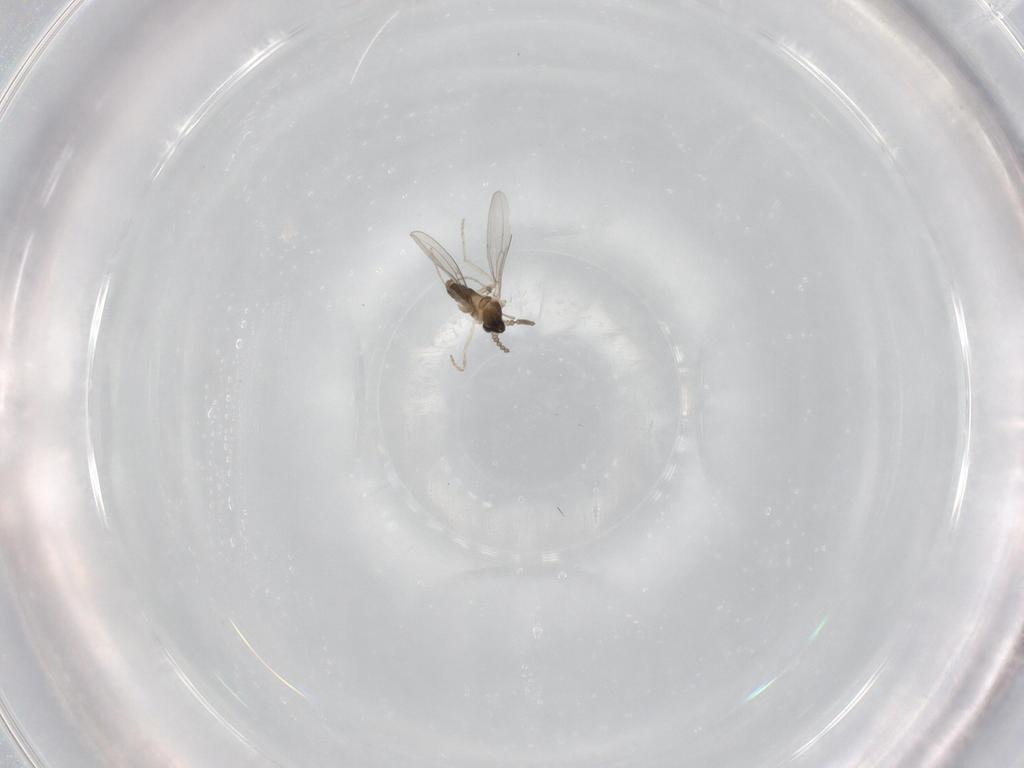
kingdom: Animalia
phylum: Arthropoda
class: Insecta
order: Diptera
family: Cecidomyiidae
